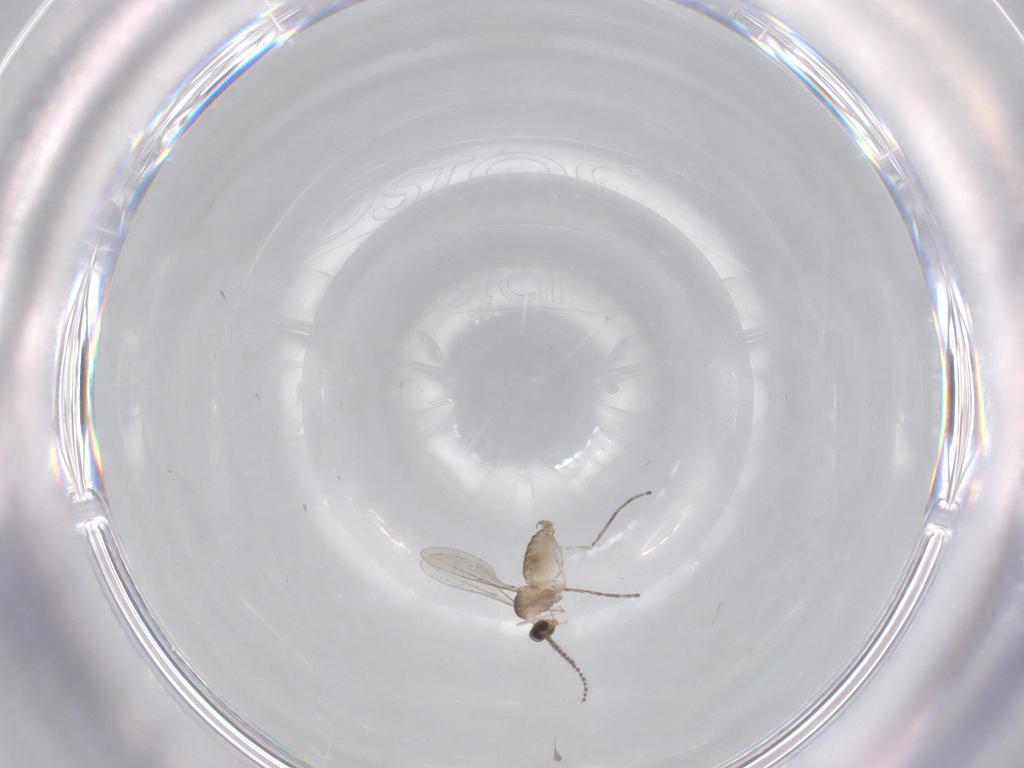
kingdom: Animalia
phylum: Arthropoda
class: Insecta
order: Diptera
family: Cecidomyiidae
